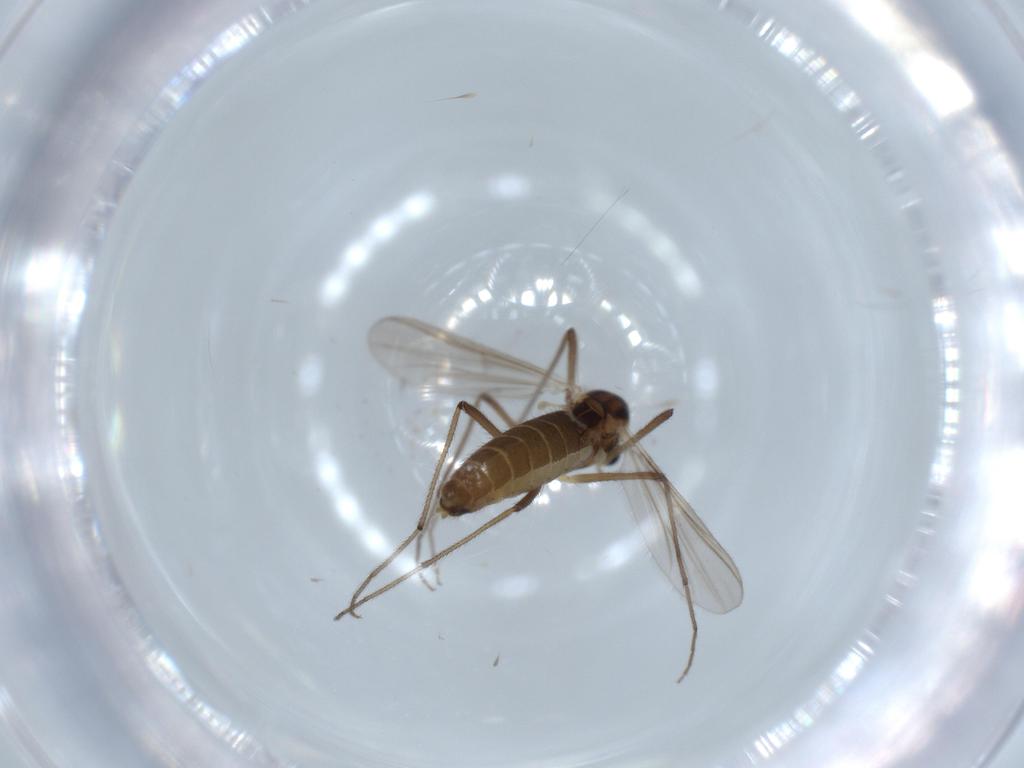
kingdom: Animalia
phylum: Arthropoda
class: Insecta
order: Diptera
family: Chironomidae
